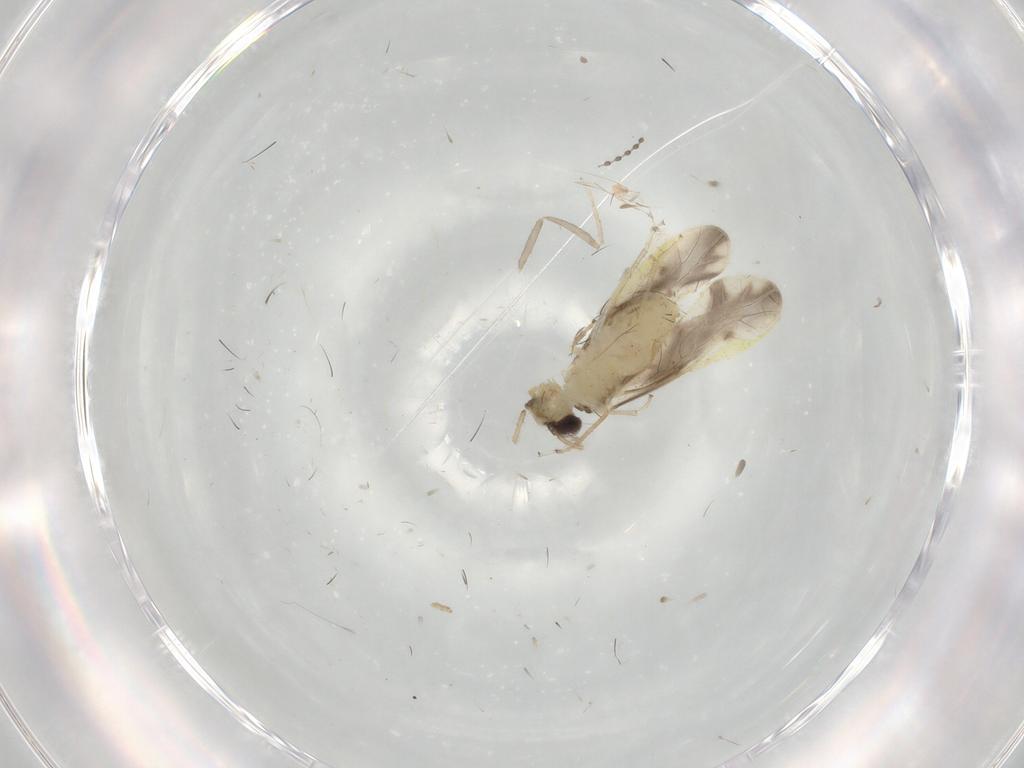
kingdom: Animalia
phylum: Arthropoda
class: Insecta
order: Psocodea
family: Caeciliusidae
